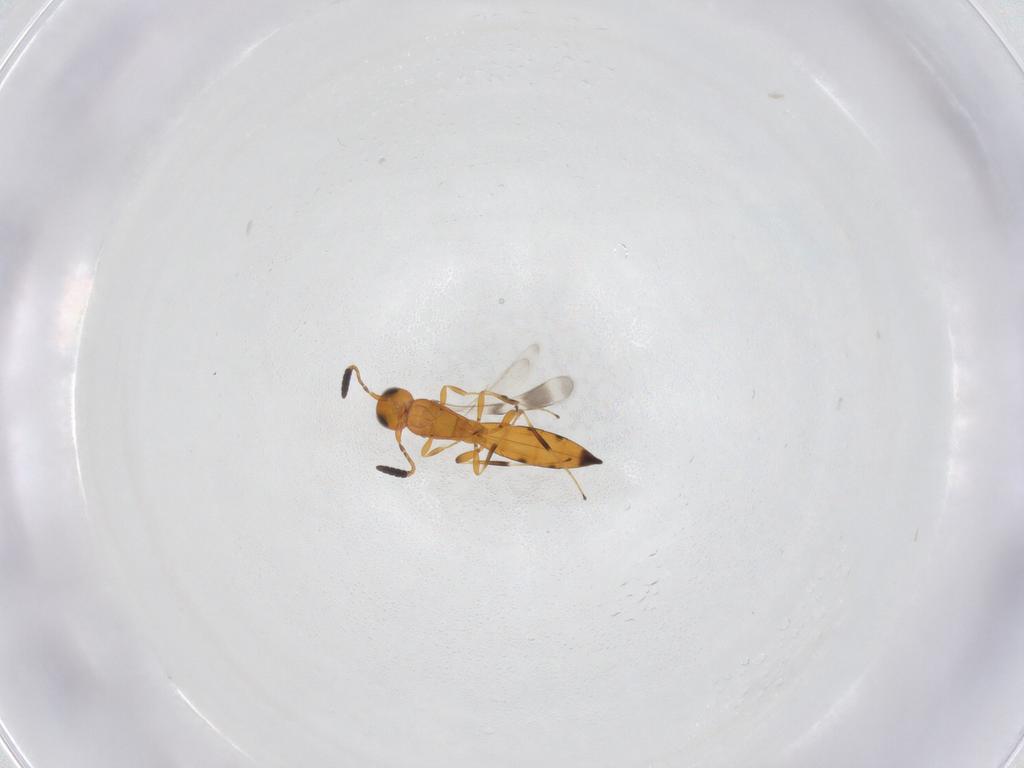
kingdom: Animalia
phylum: Arthropoda
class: Insecta
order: Hymenoptera
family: Scelionidae
